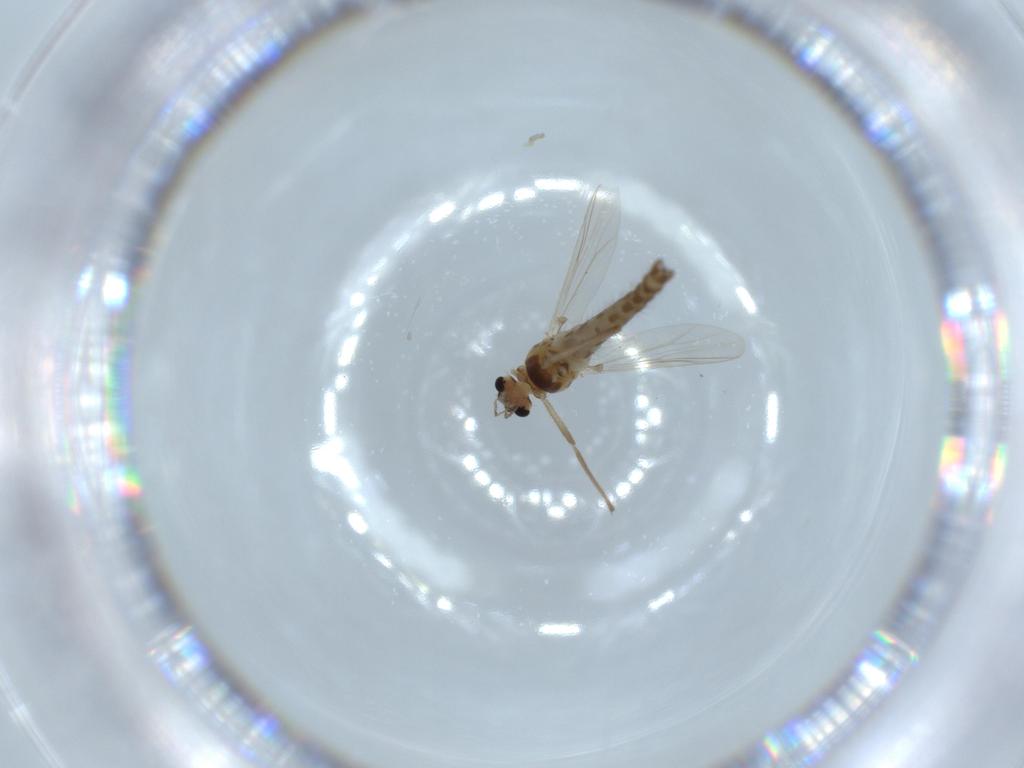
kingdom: Animalia
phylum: Arthropoda
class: Insecta
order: Diptera
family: Chironomidae
